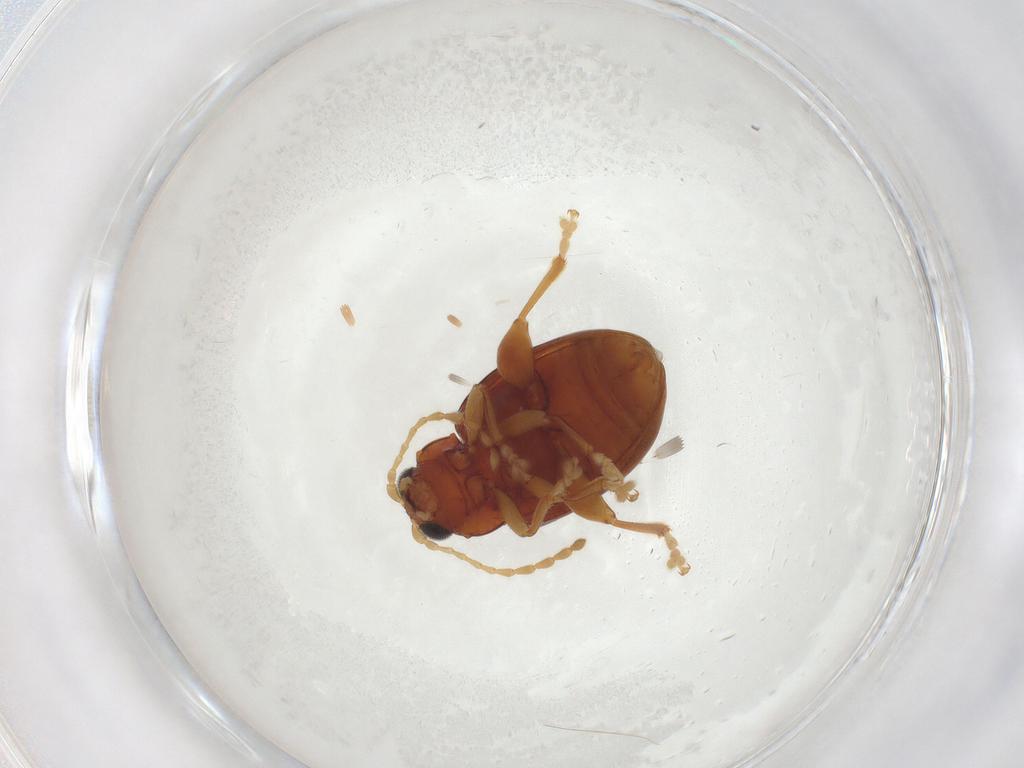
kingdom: Animalia
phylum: Arthropoda
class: Insecta
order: Coleoptera
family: Chrysomelidae
